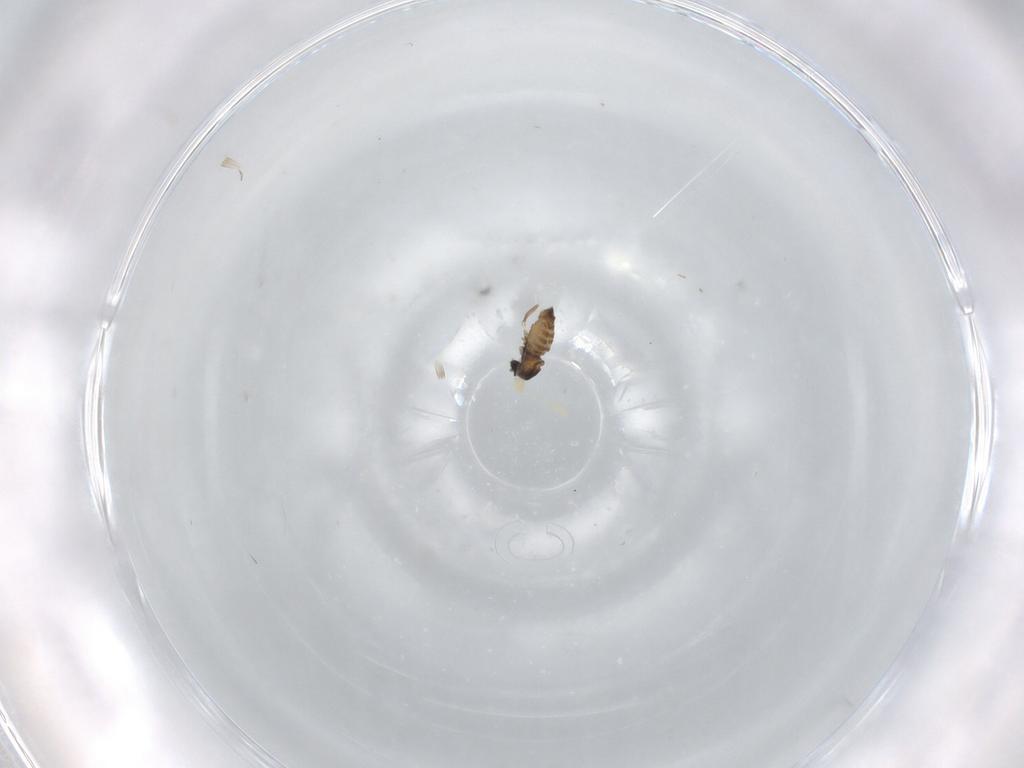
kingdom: Animalia
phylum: Arthropoda
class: Insecta
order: Diptera
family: Cecidomyiidae
